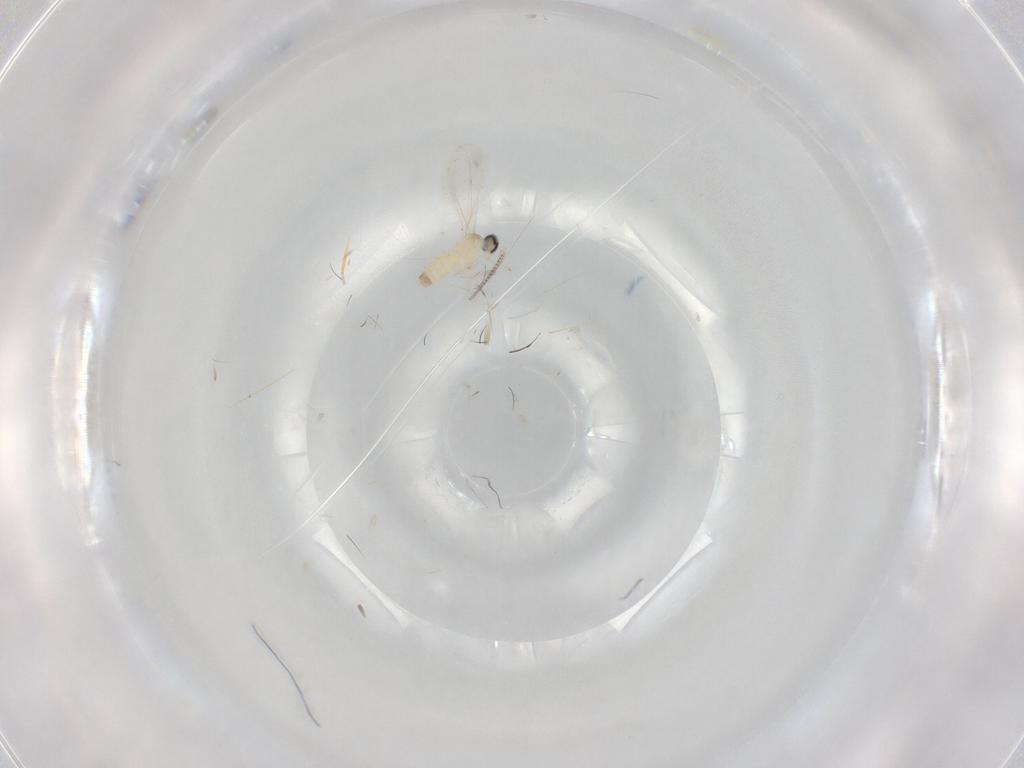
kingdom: Animalia
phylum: Arthropoda
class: Insecta
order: Diptera
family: Cecidomyiidae
